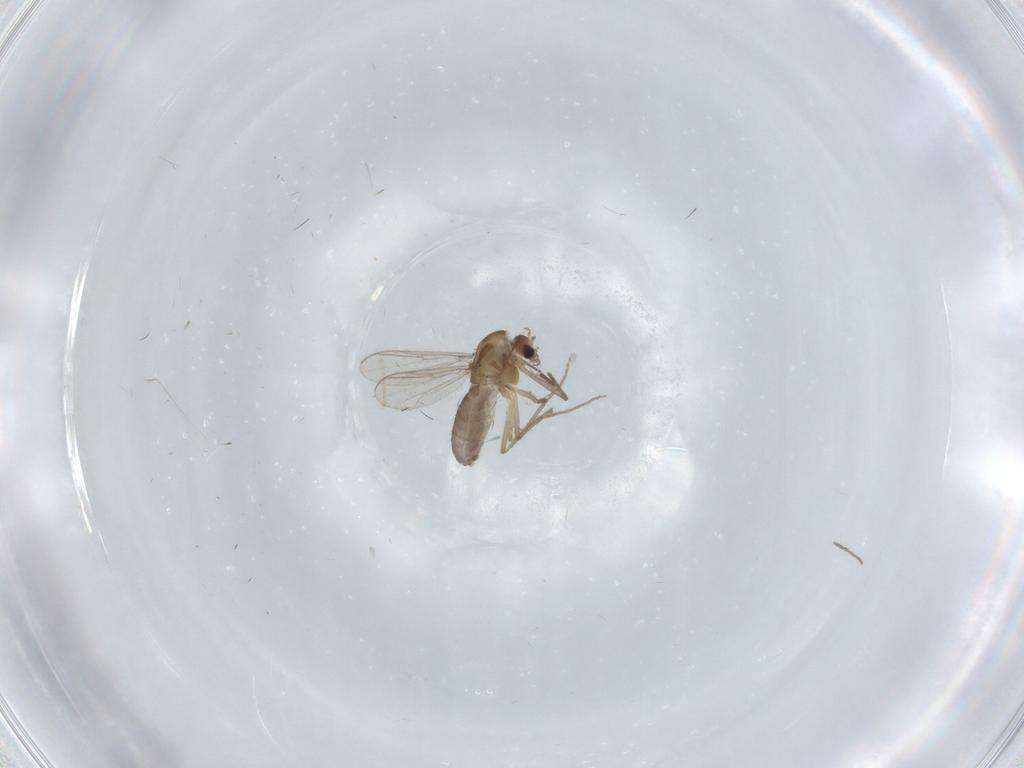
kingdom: Animalia
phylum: Arthropoda
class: Insecta
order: Diptera
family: Chironomidae
